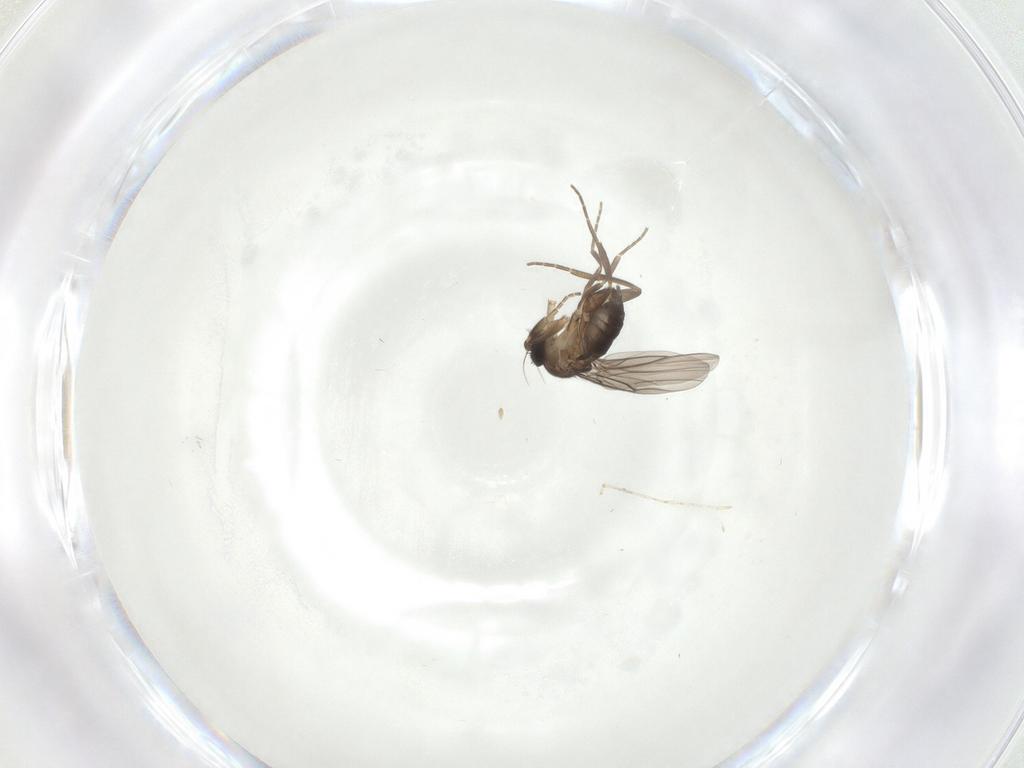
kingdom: Animalia
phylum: Arthropoda
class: Insecta
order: Diptera
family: Phoridae
